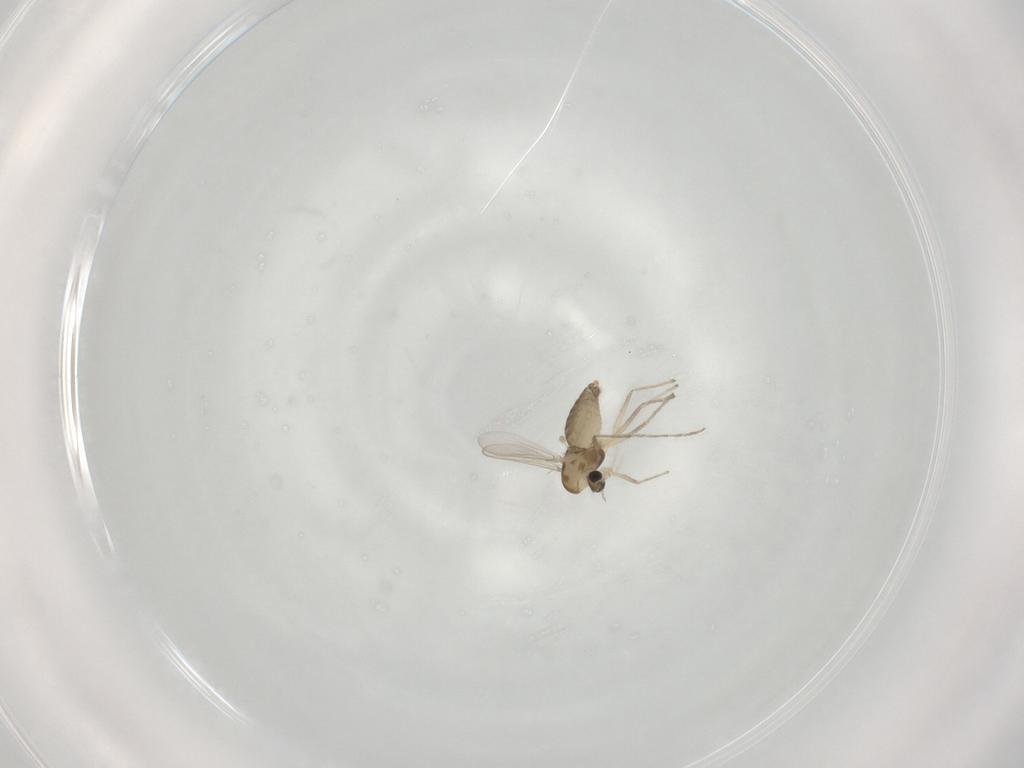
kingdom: Animalia
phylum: Arthropoda
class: Insecta
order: Diptera
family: Chironomidae
